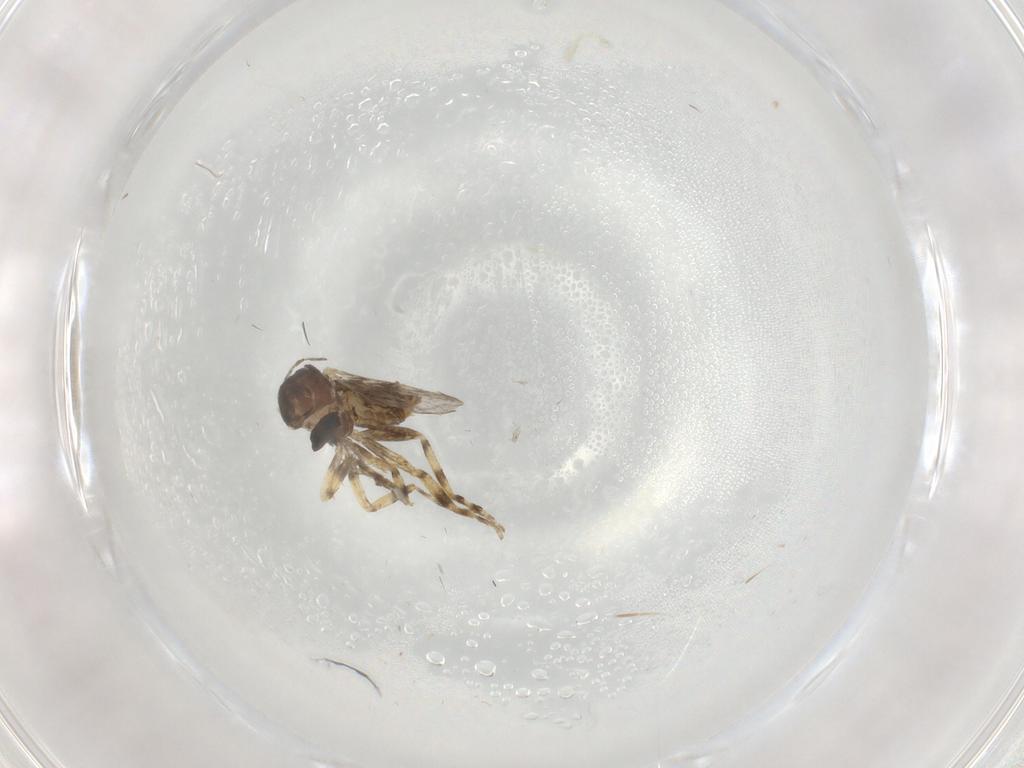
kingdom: Animalia
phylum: Arthropoda
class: Insecta
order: Diptera
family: Ceratopogonidae
